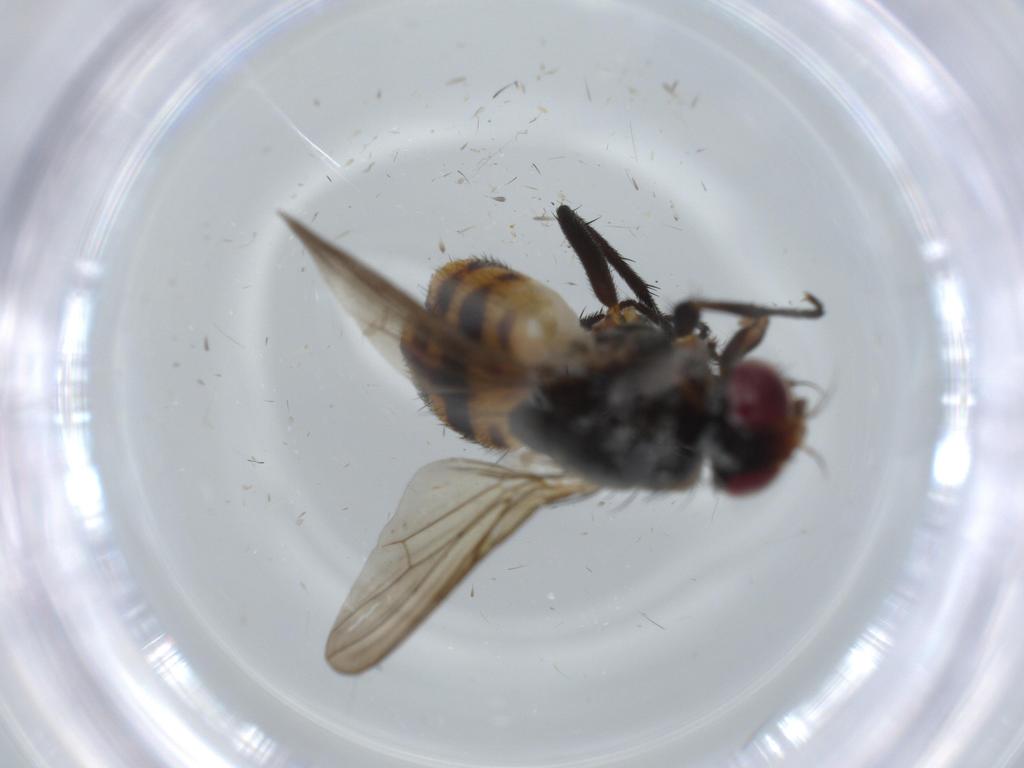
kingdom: Animalia
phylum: Arthropoda
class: Insecta
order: Diptera
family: Anthomyiidae
